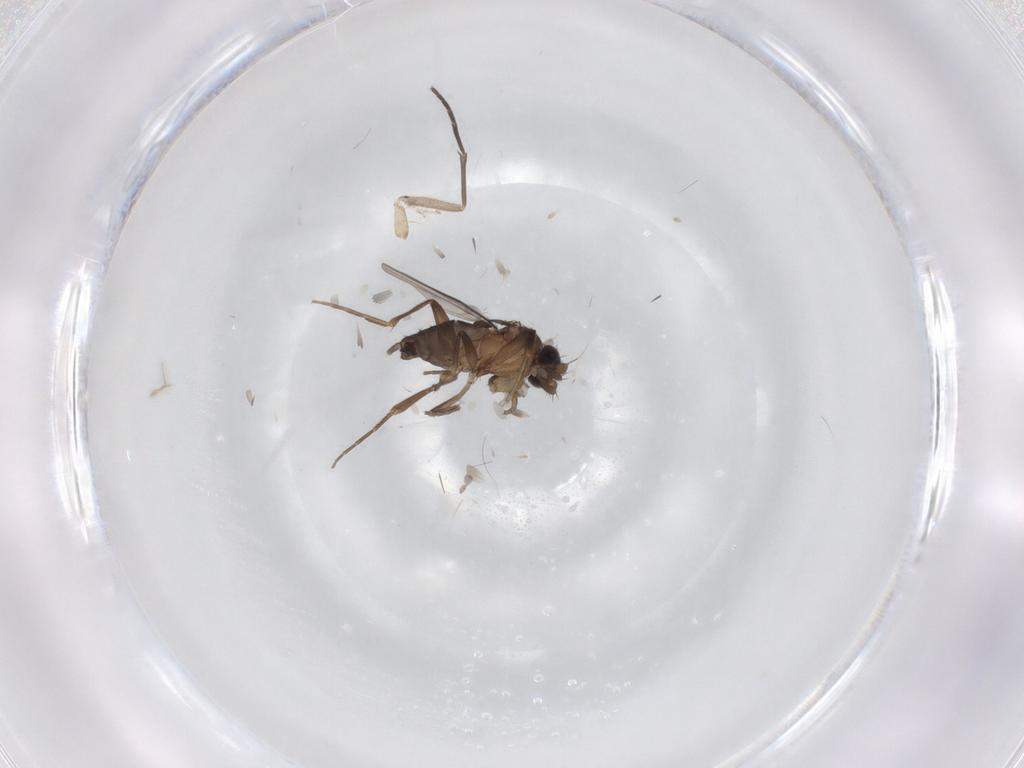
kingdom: Animalia
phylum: Arthropoda
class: Insecta
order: Diptera
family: Phoridae
